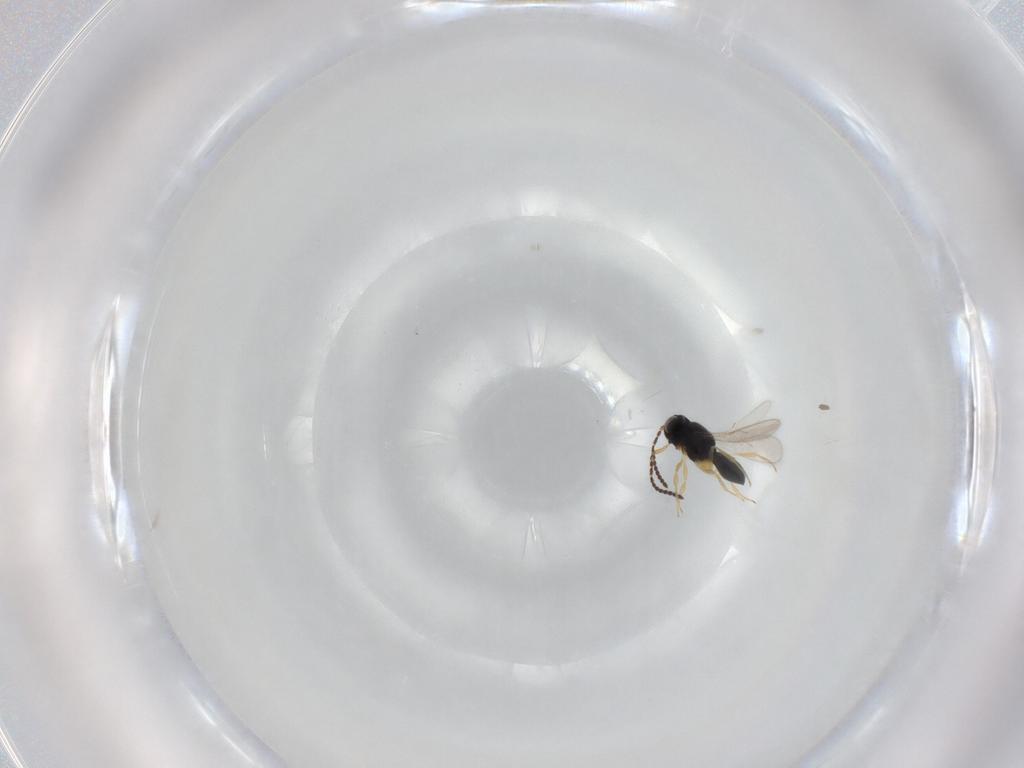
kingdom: Animalia
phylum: Arthropoda
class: Insecta
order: Hymenoptera
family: Scelionidae
